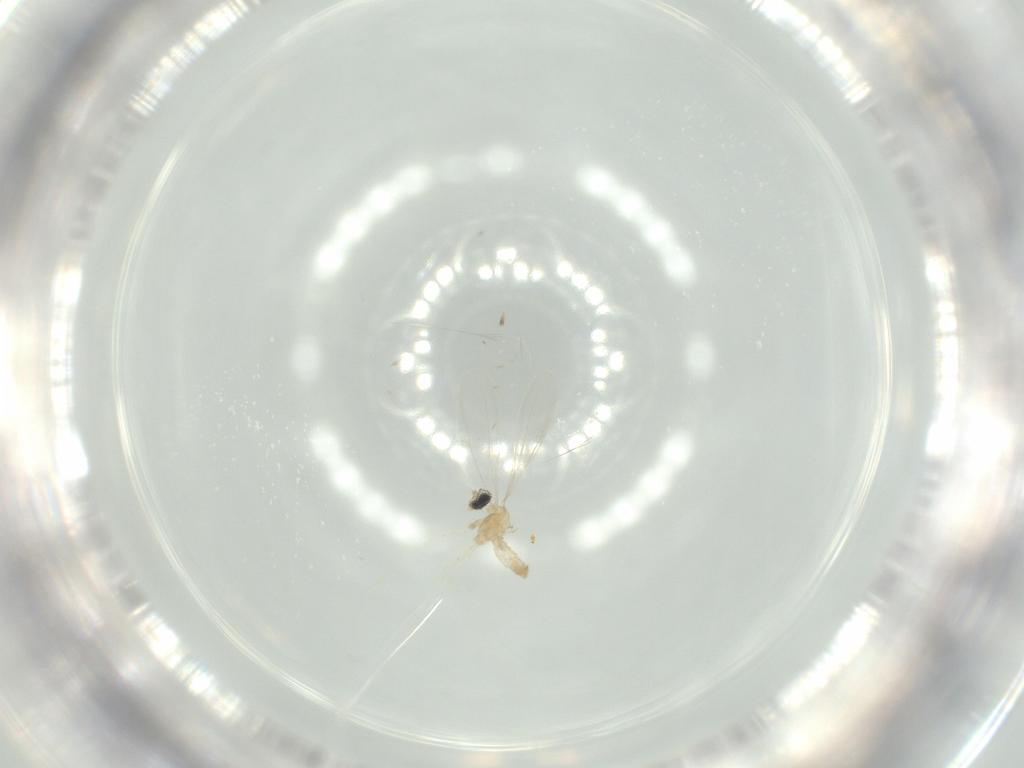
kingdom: Animalia
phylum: Arthropoda
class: Insecta
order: Diptera
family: Cecidomyiidae
